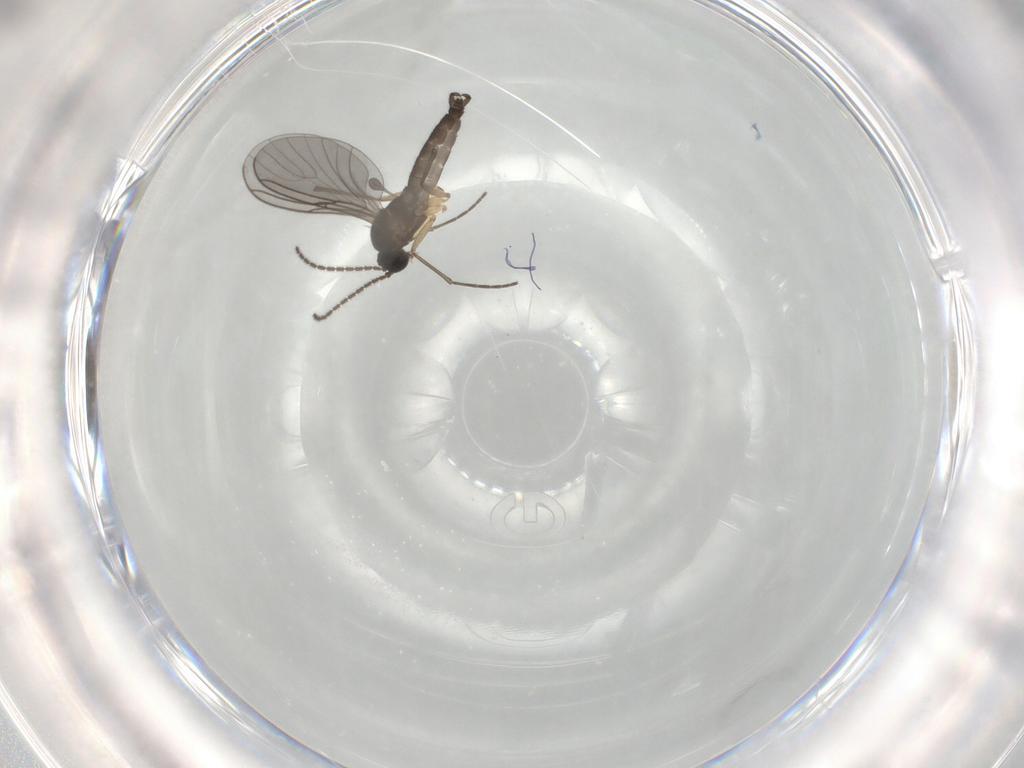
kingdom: Animalia
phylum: Arthropoda
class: Insecta
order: Diptera
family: Sciaridae
